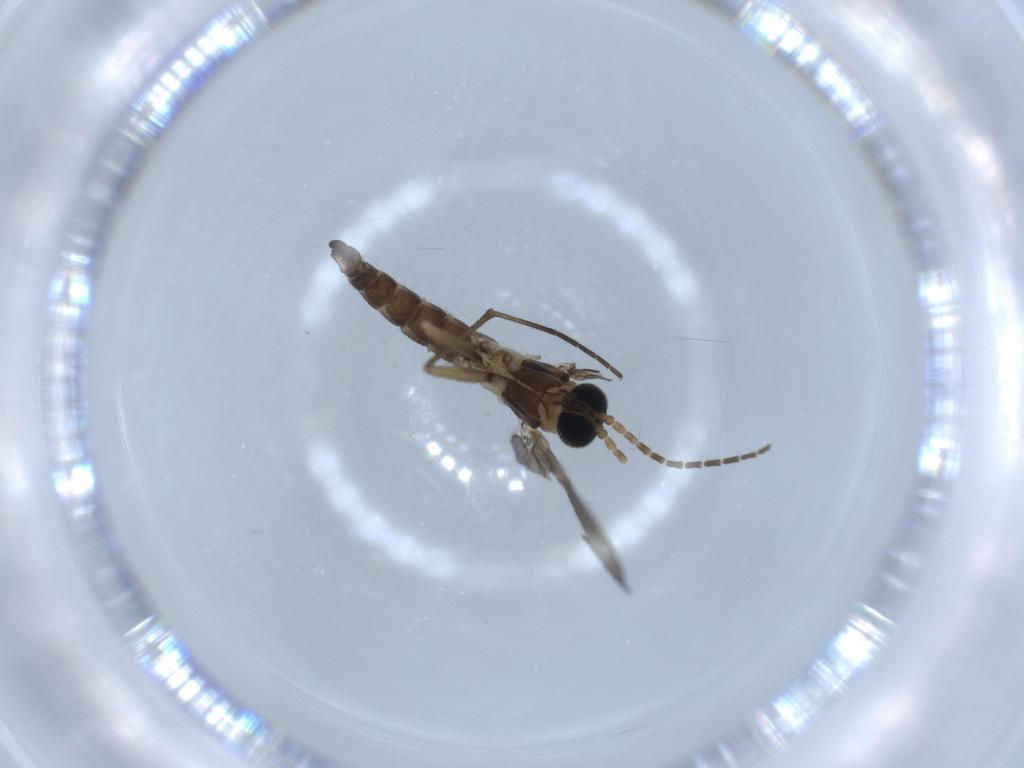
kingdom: Animalia
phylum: Arthropoda
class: Insecta
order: Diptera
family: Sciaridae
